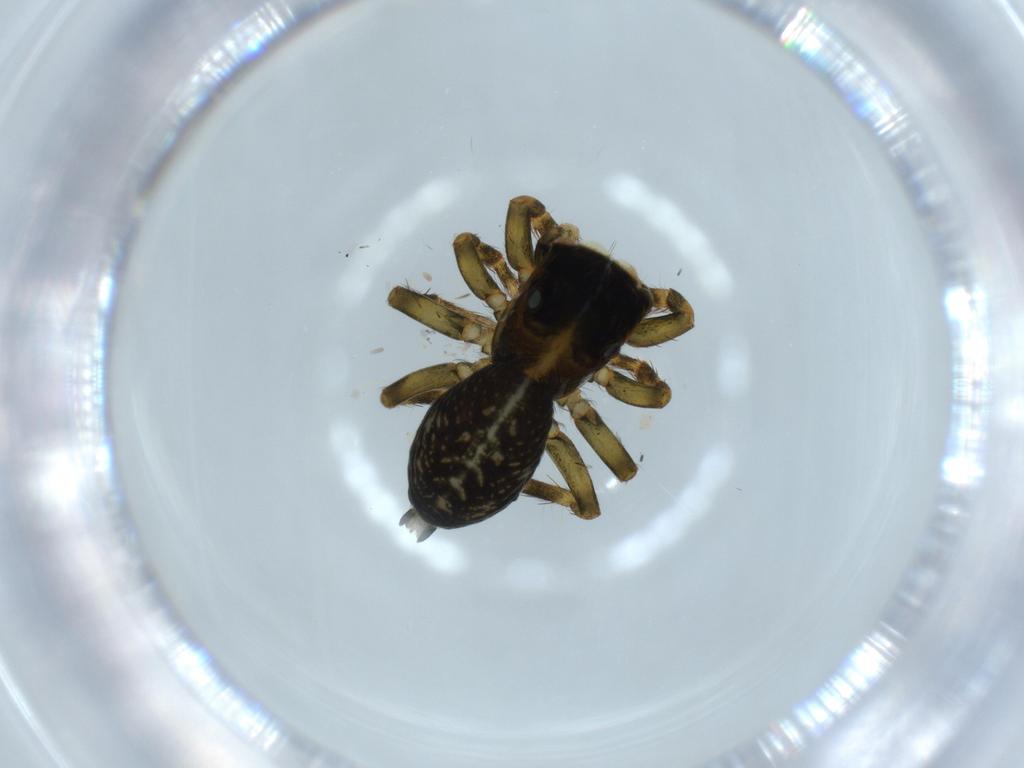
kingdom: Animalia
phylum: Arthropoda
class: Arachnida
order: Araneae
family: Salticidae
